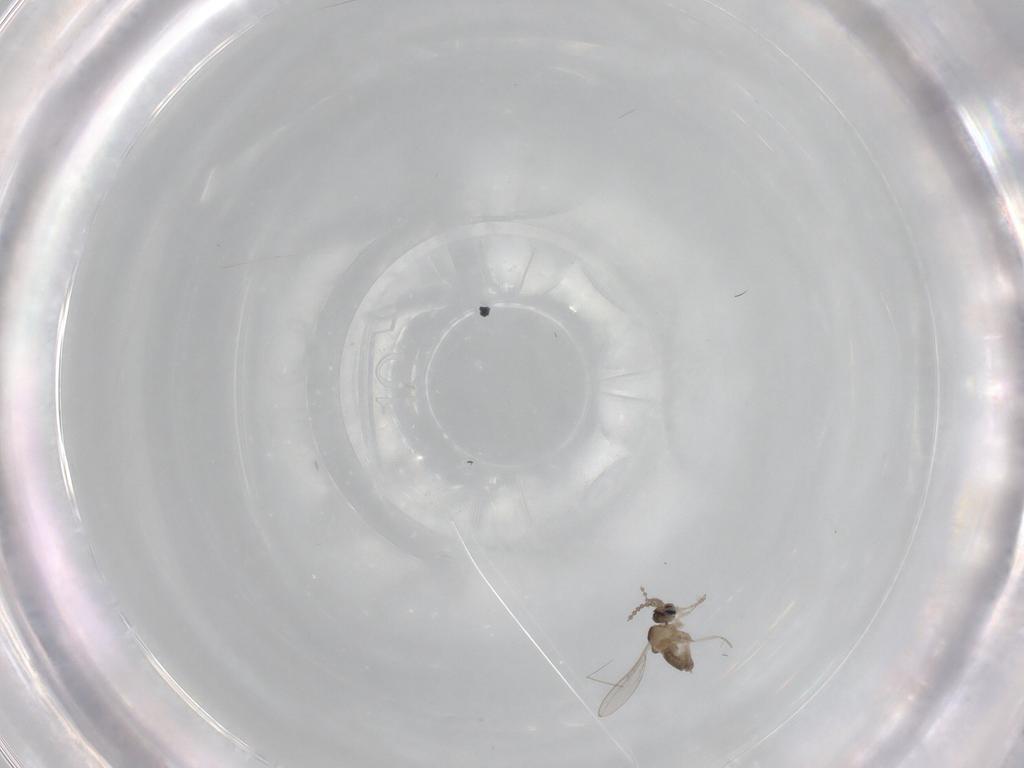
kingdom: Animalia
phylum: Arthropoda
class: Insecta
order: Diptera
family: Cecidomyiidae
